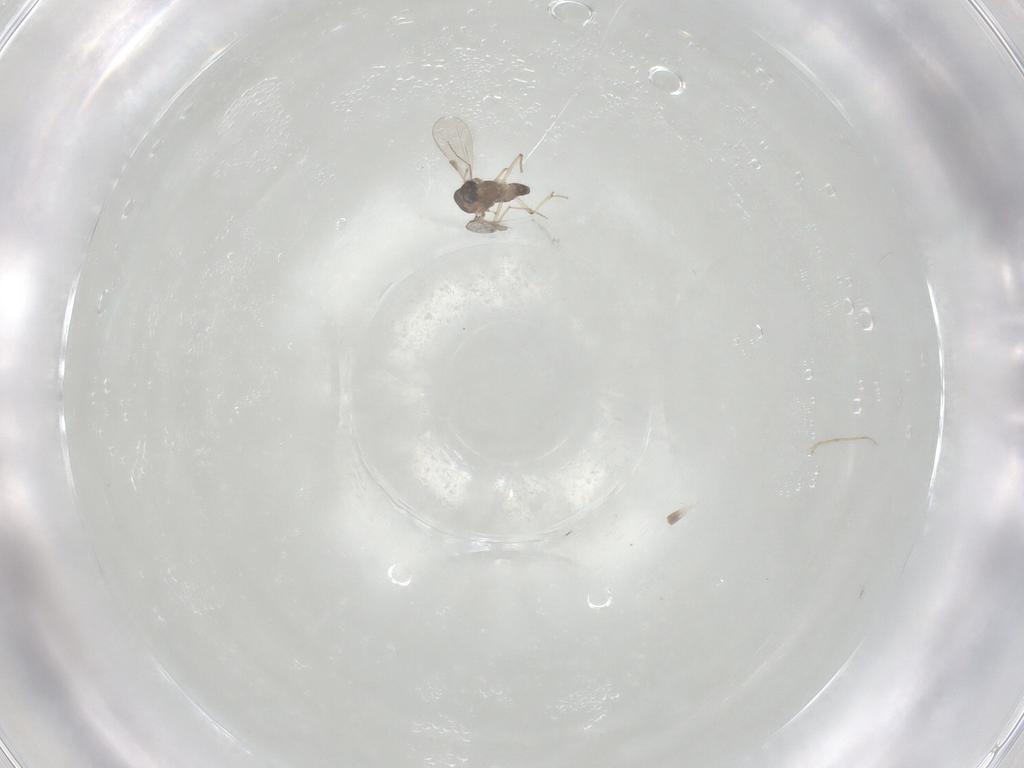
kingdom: Animalia
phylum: Arthropoda
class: Insecta
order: Diptera
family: Chironomidae
